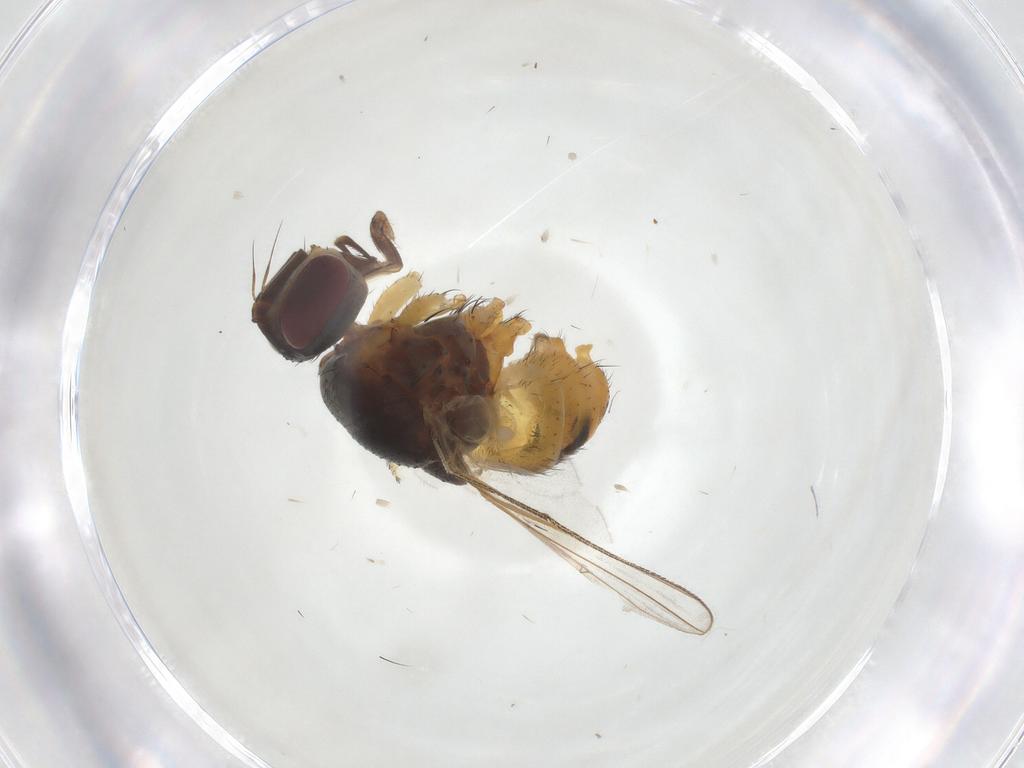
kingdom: Animalia
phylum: Arthropoda
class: Insecta
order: Diptera
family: Muscidae
